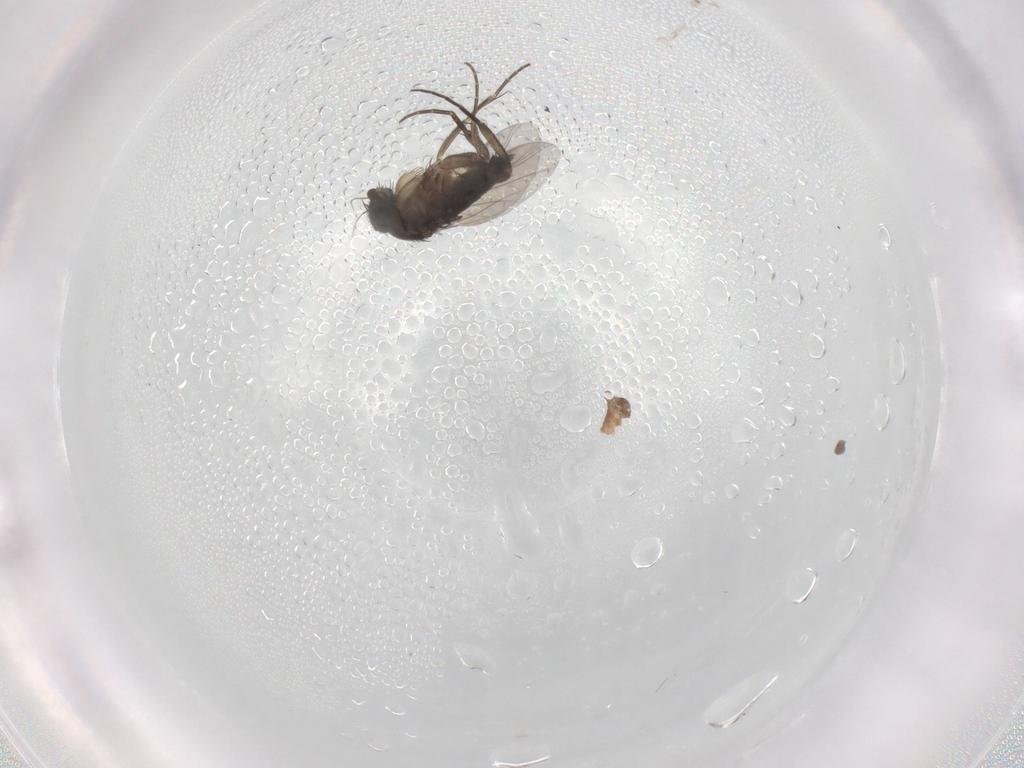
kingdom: Animalia
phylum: Arthropoda
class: Insecta
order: Diptera
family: Phoridae
